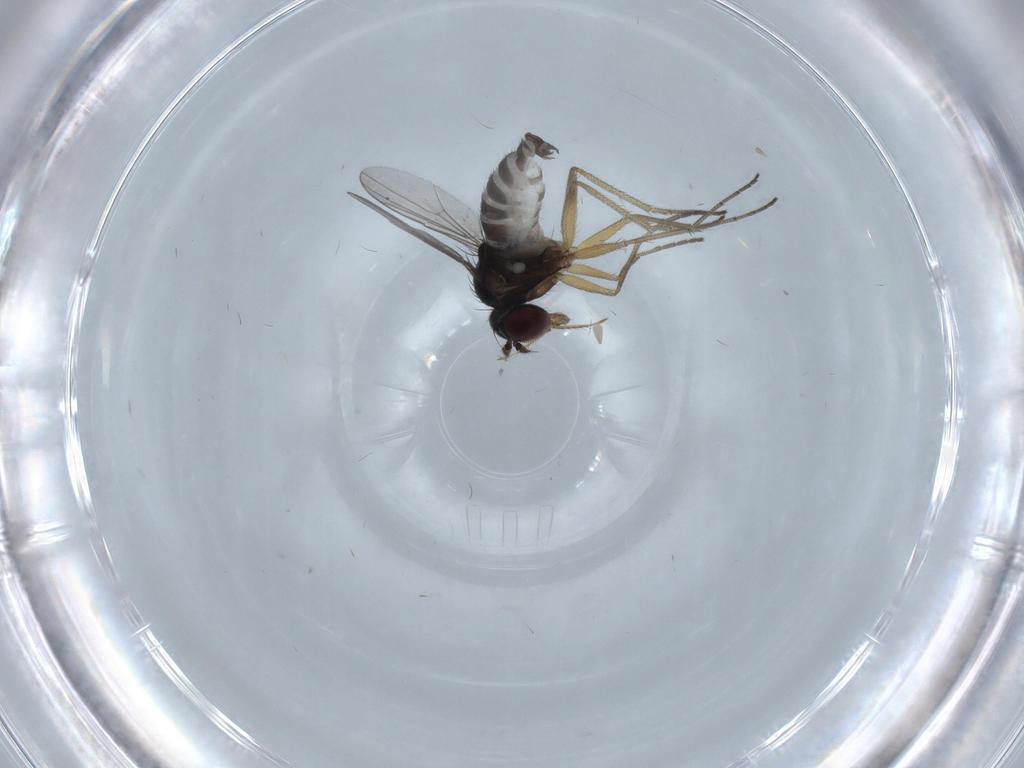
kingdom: Animalia
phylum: Arthropoda
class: Insecta
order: Diptera
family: Dolichopodidae
